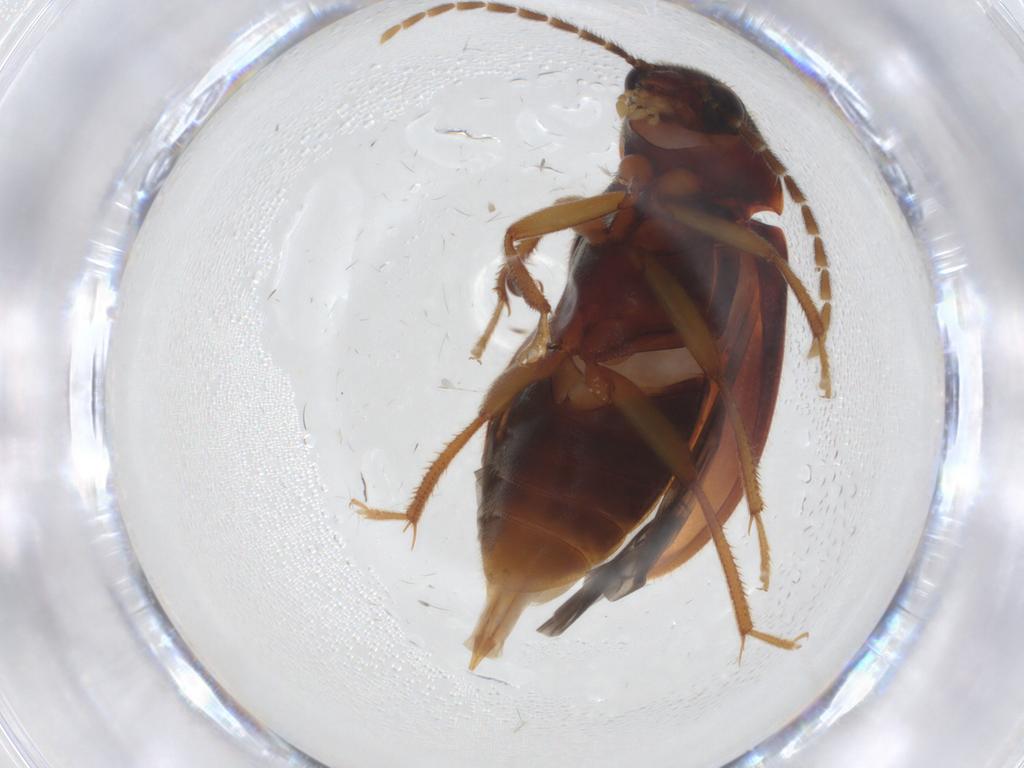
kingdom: Animalia
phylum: Arthropoda
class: Insecta
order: Coleoptera
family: Ptilodactylidae
